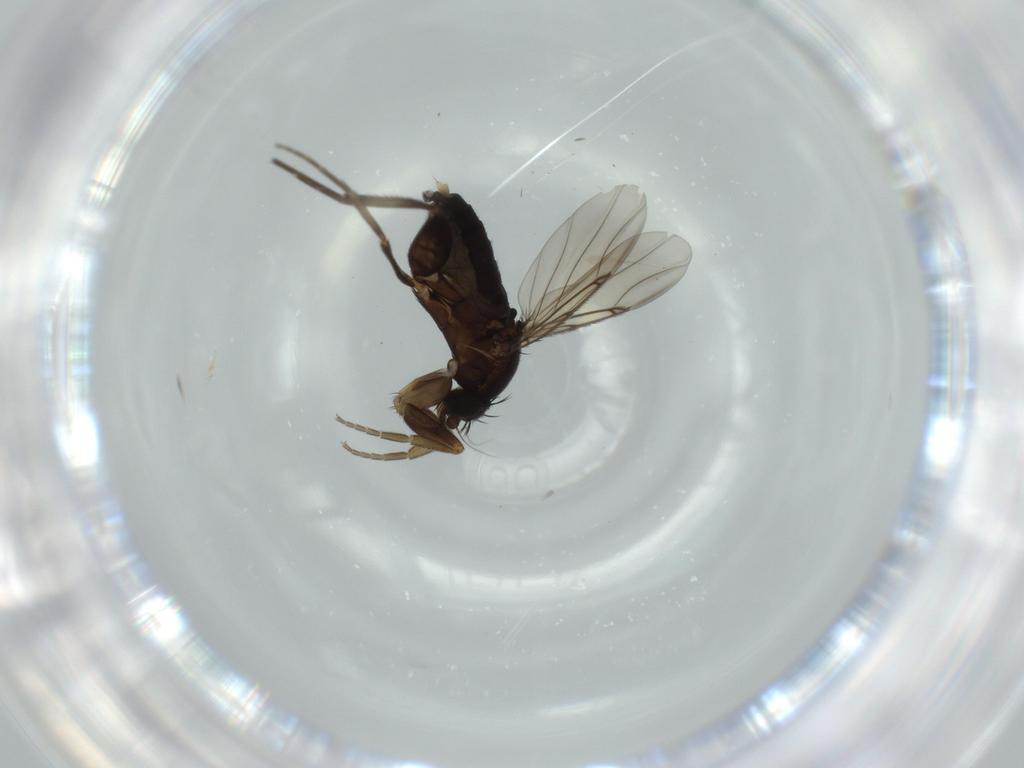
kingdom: Animalia
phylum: Arthropoda
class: Insecta
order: Diptera
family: Phoridae
